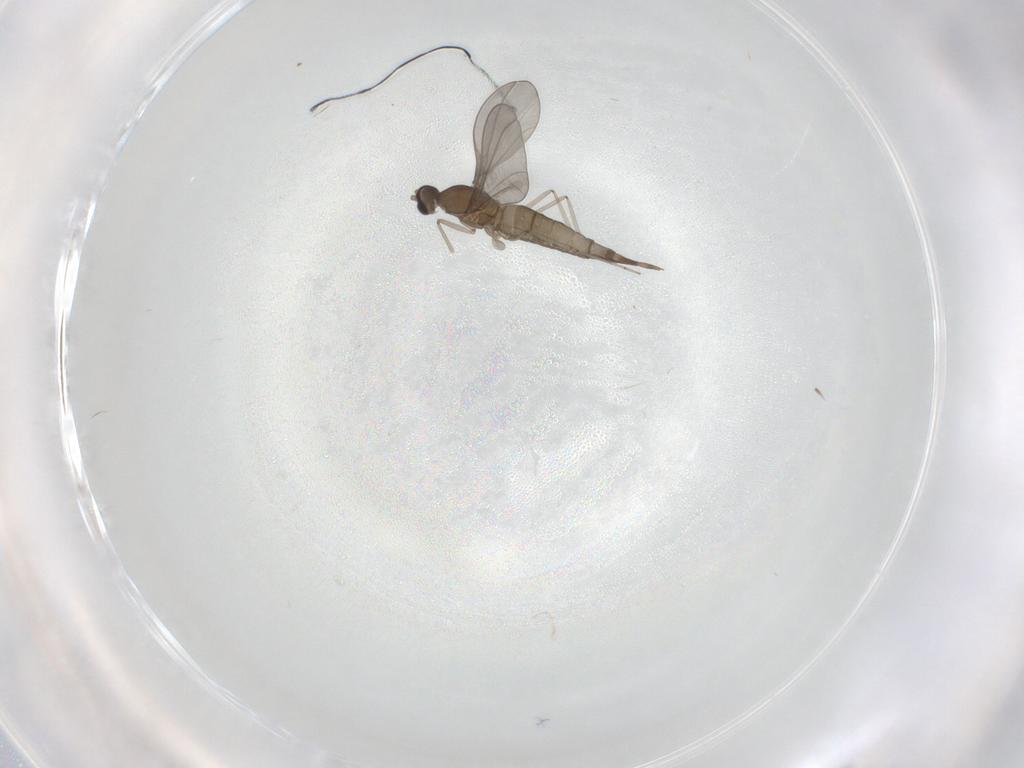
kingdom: Animalia
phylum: Arthropoda
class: Insecta
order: Diptera
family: Cecidomyiidae
